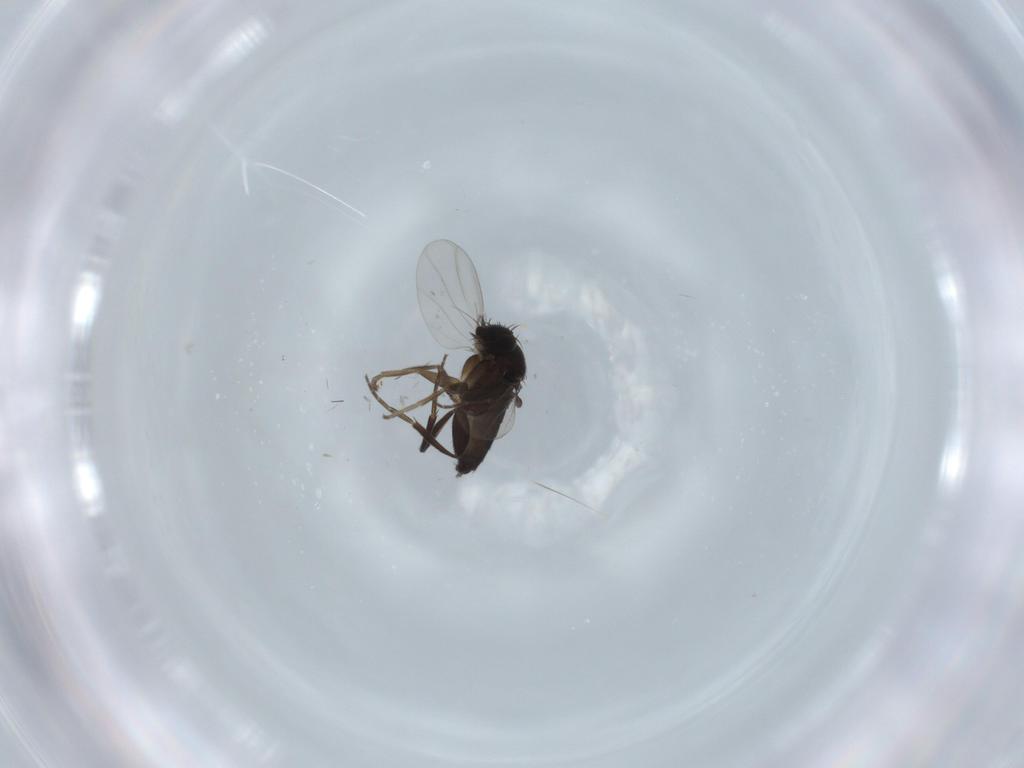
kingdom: Animalia
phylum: Arthropoda
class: Insecta
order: Diptera
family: Phoridae
